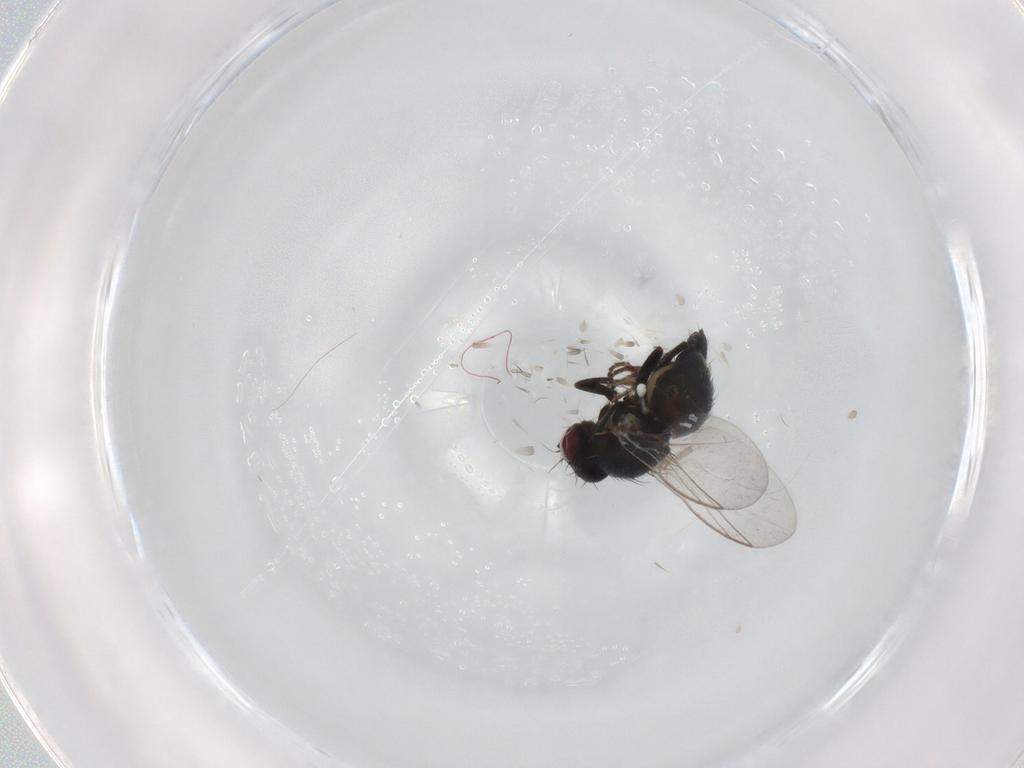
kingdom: Animalia
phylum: Arthropoda
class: Insecta
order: Diptera
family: Agromyzidae
